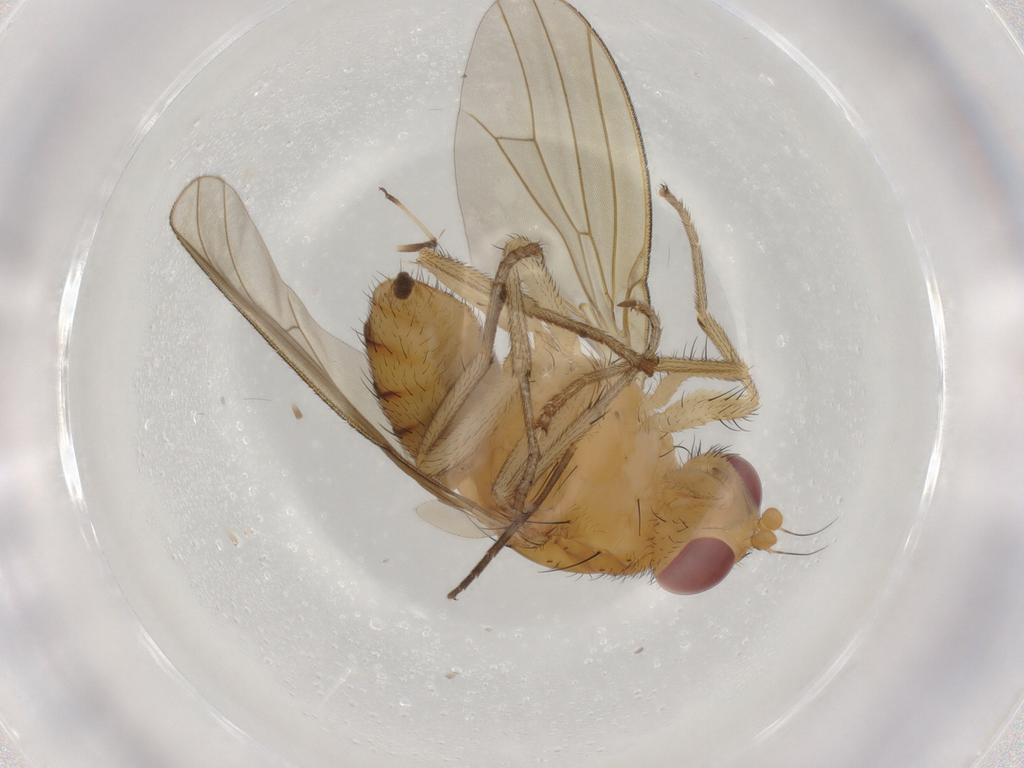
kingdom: Animalia
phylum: Arthropoda
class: Insecta
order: Diptera
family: Lauxaniidae
